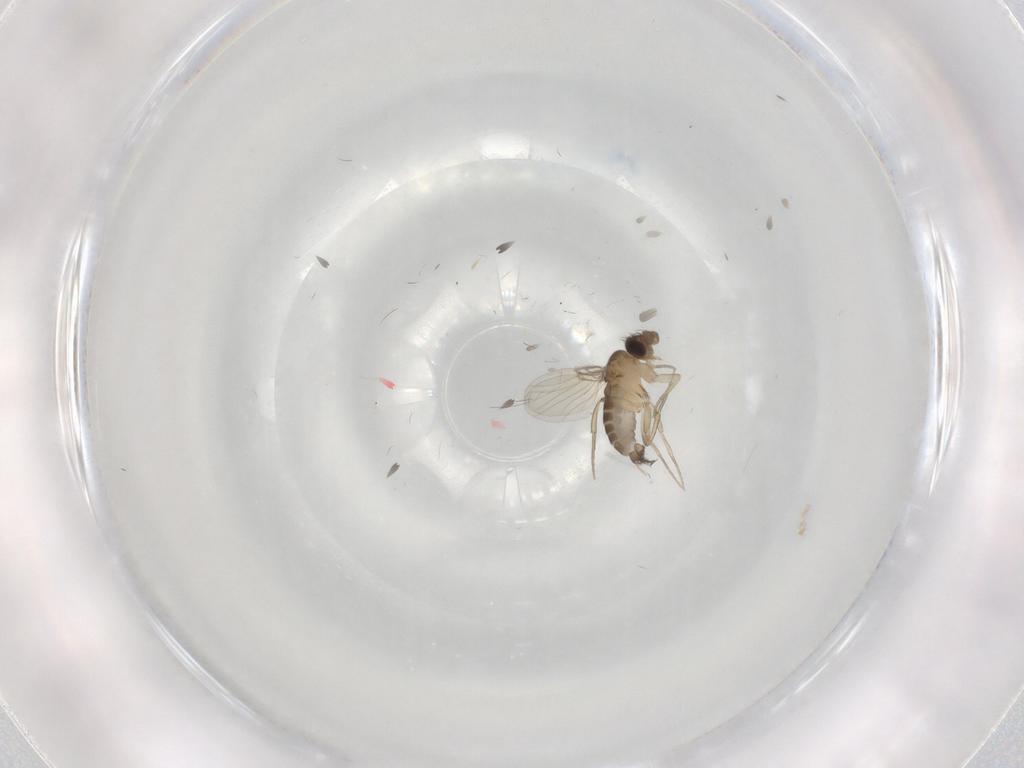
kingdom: Animalia
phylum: Arthropoda
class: Insecta
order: Diptera
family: Phoridae
